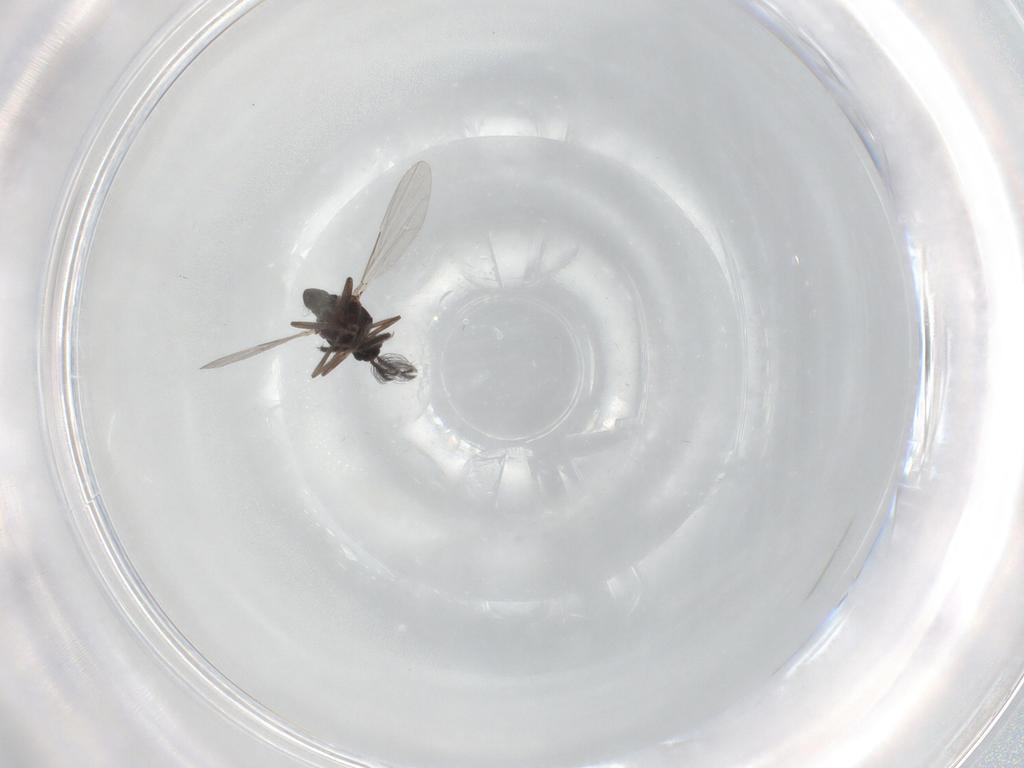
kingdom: Animalia
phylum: Arthropoda
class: Insecta
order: Diptera
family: Ceratopogonidae
